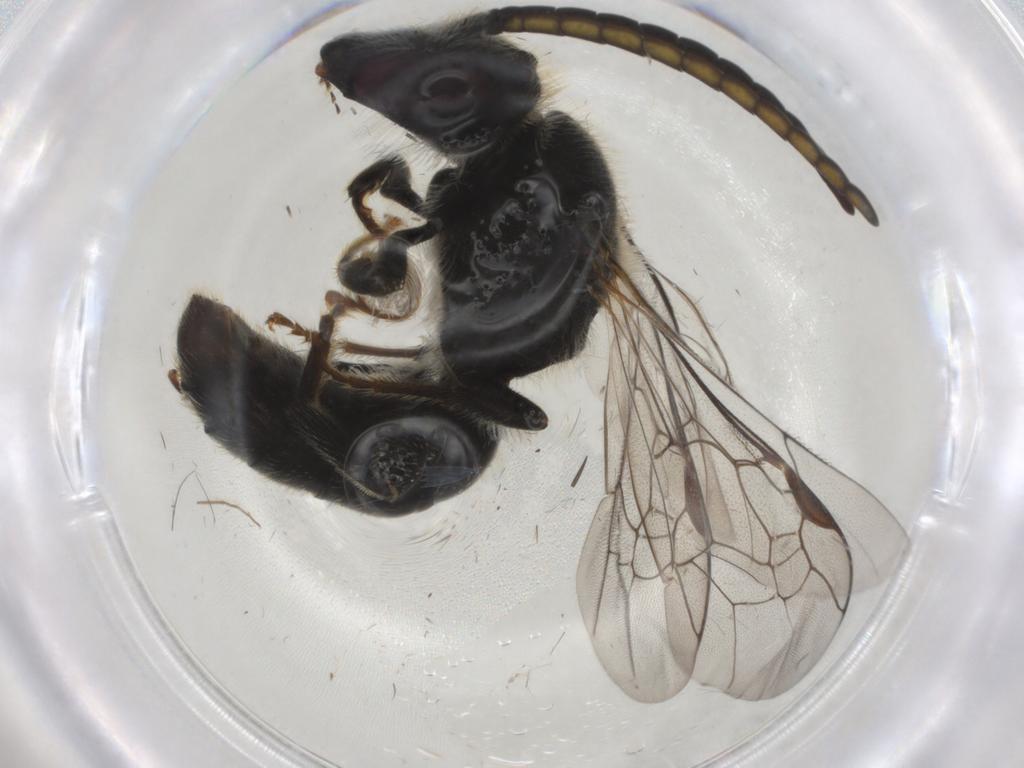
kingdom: Animalia
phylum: Arthropoda
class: Insecta
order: Hymenoptera
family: Halictidae
